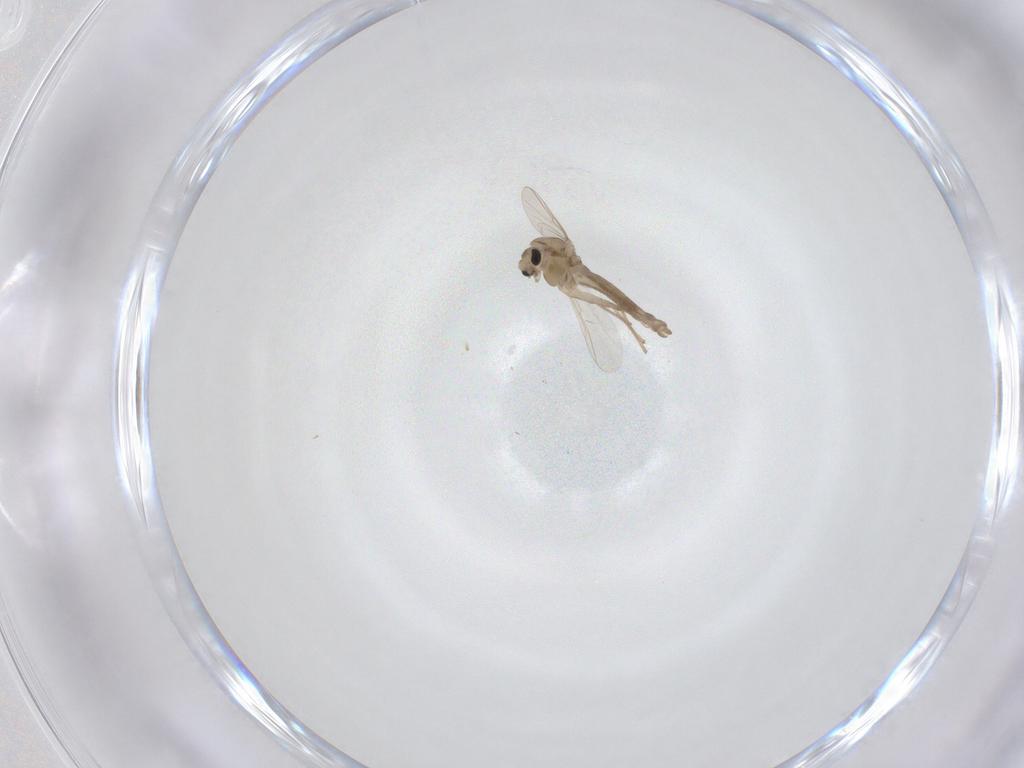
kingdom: Animalia
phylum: Arthropoda
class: Insecta
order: Diptera
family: Chironomidae
